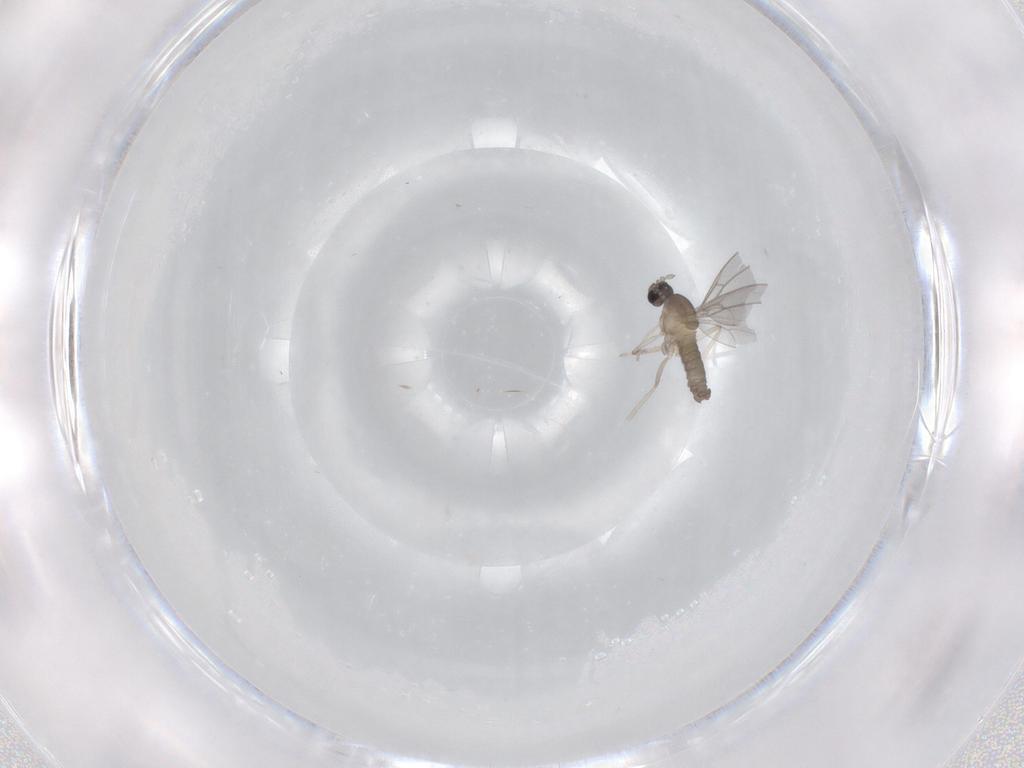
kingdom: Animalia
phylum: Arthropoda
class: Insecta
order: Diptera
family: Cecidomyiidae
